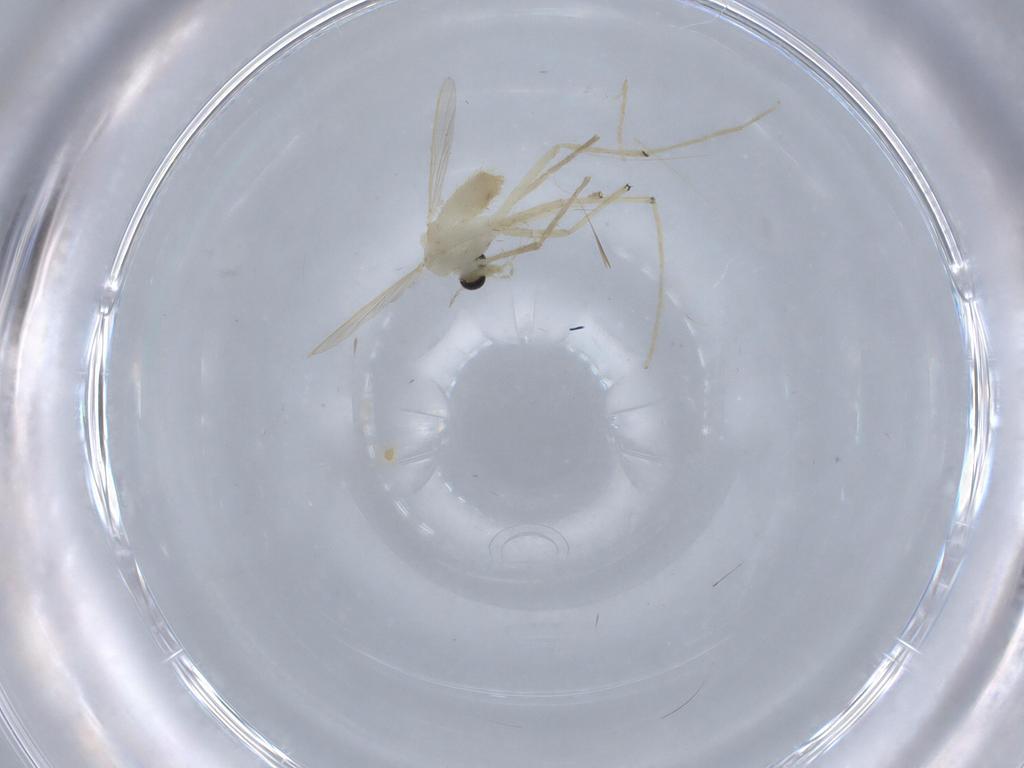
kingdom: Animalia
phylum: Arthropoda
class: Insecta
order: Diptera
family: Chironomidae
